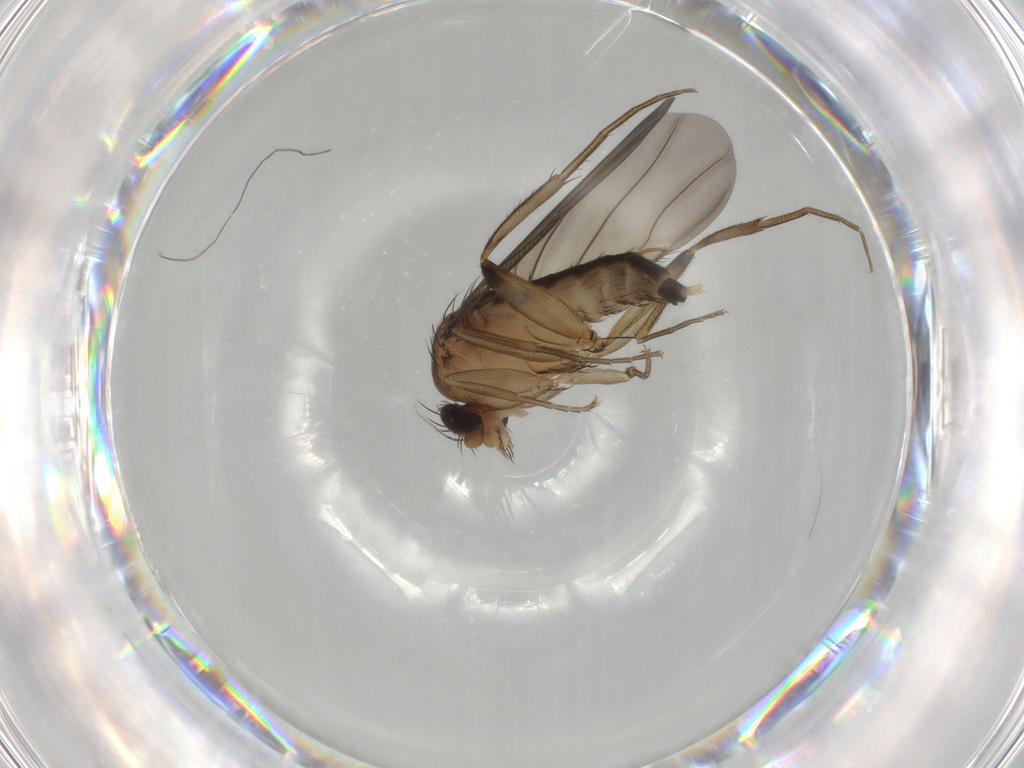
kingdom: Animalia
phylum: Arthropoda
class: Insecta
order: Diptera
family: Phoridae
